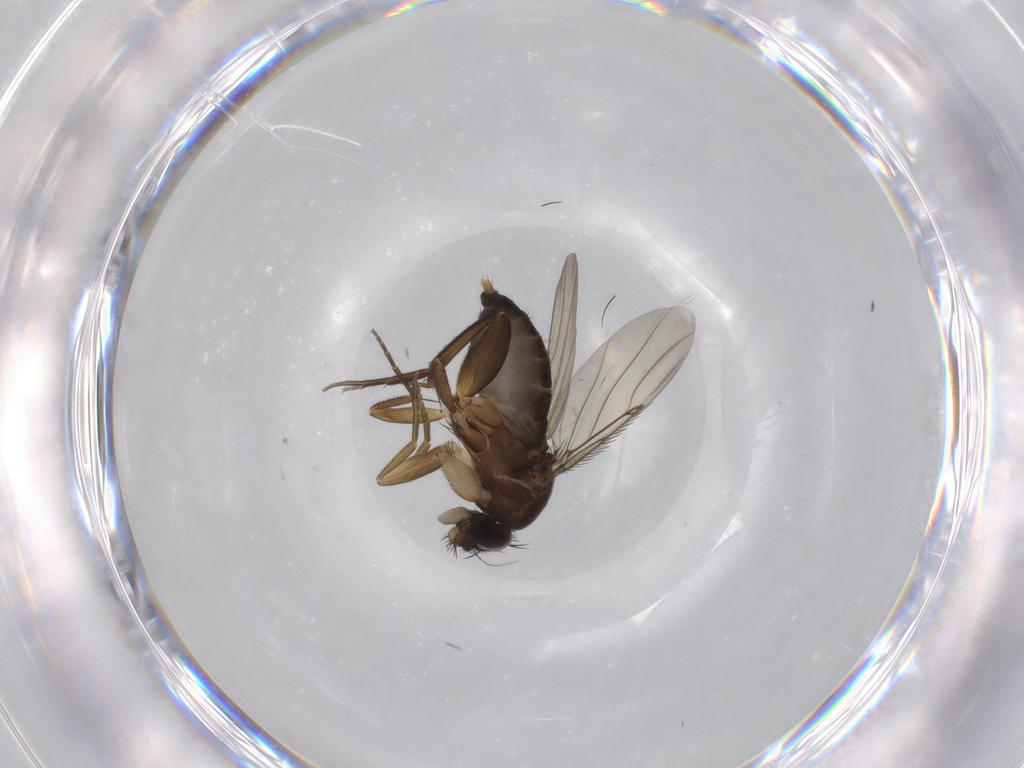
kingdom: Animalia
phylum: Arthropoda
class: Insecta
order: Diptera
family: Phoridae
